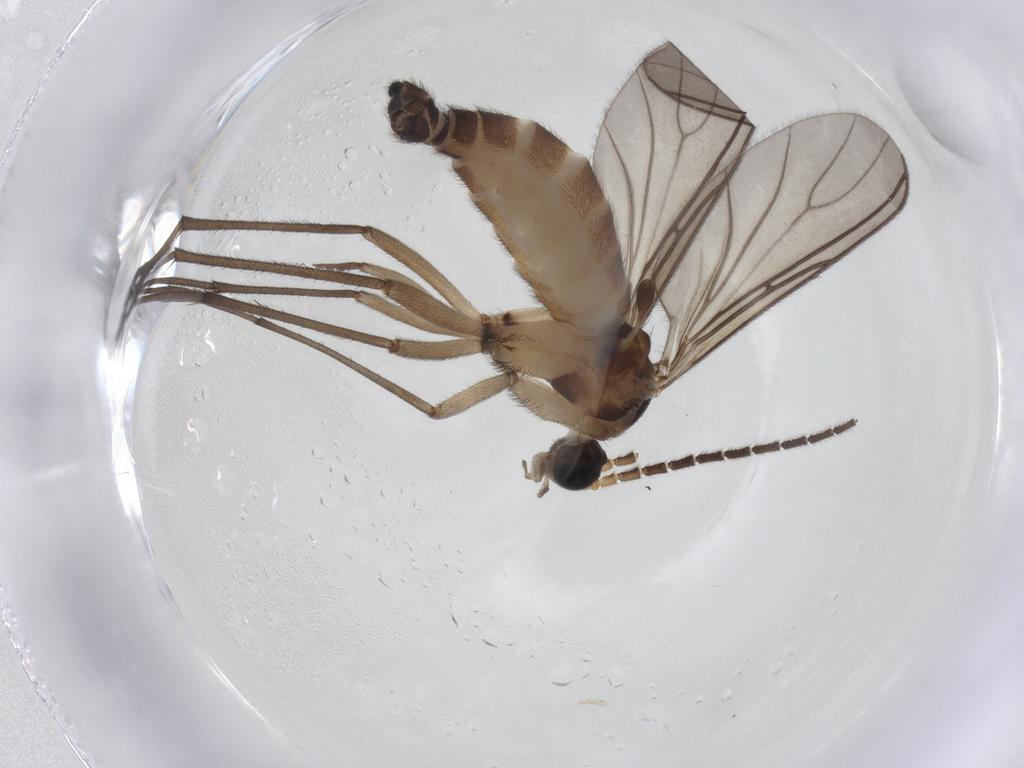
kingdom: Animalia
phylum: Arthropoda
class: Insecta
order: Diptera
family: Sciaridae
